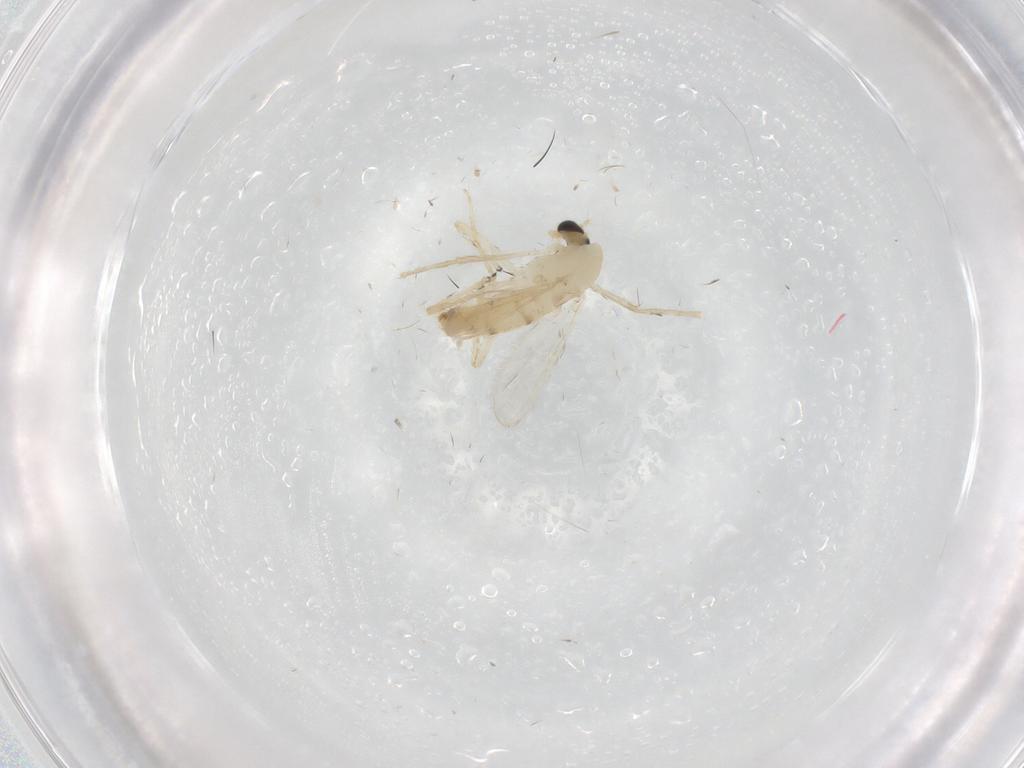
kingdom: Animalia
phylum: Arthropoda
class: Insecta
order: Diptera
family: Chironomidae
